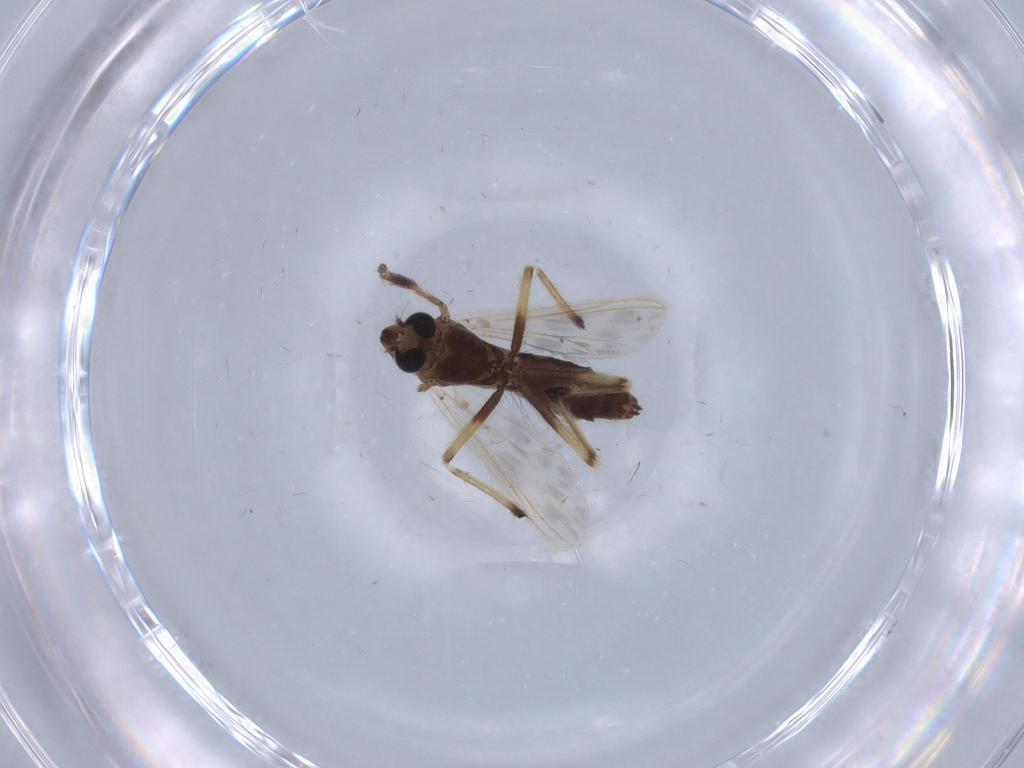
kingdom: Animalia
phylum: Arthropoda
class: Insecta
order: Diptera
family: Chironomidae
